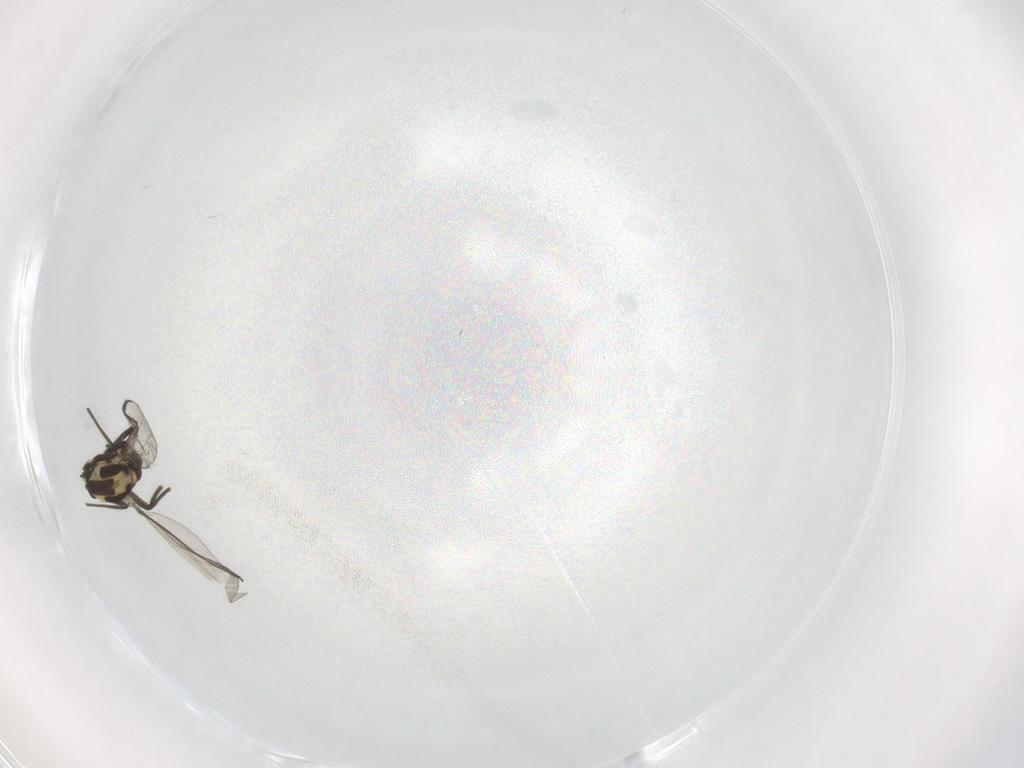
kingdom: Animalia
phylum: Arthropoda
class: Insecta
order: Diptera
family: Chironomidae
